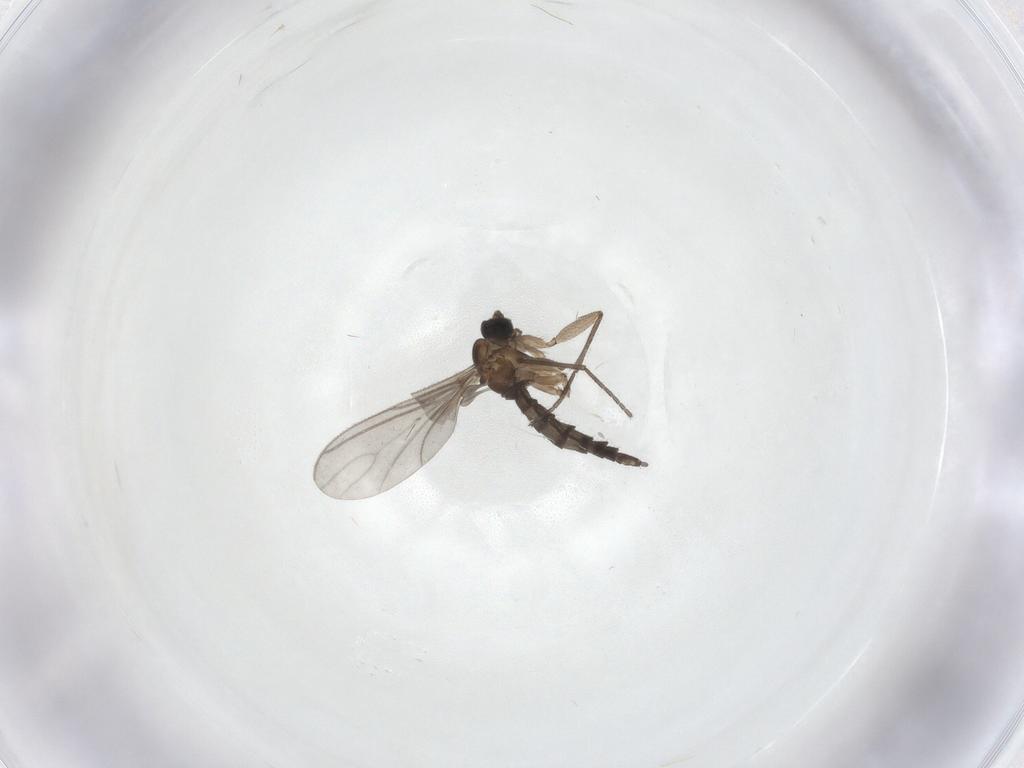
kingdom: Animalia
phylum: Arthropoda
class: Insecta
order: Diptera
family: Sciaridae
